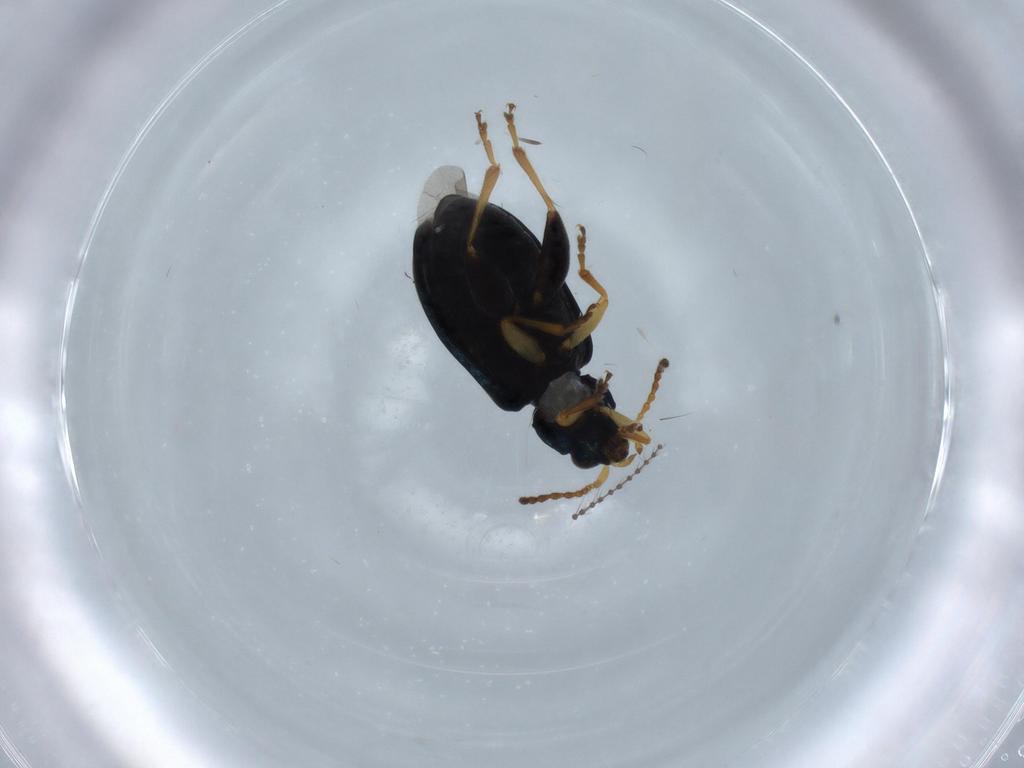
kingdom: Animalia
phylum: Arthropoda
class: Insecta
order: Coleoptera
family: Chrysomelidae
